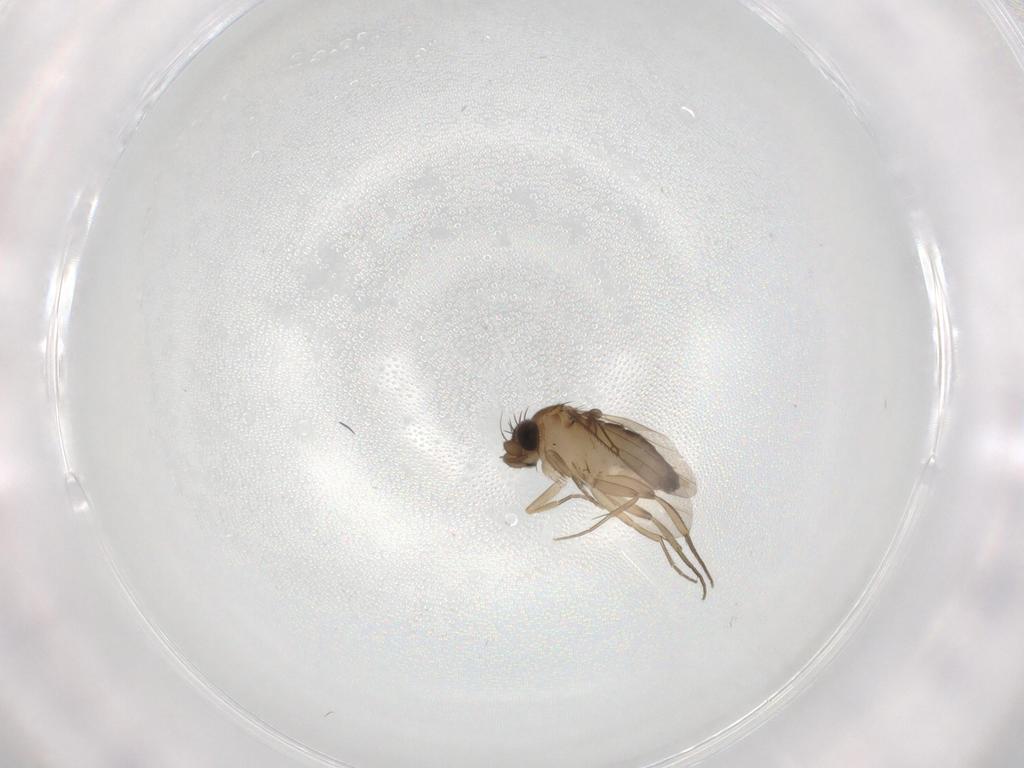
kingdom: Animalia
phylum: Arthropoda
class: Insecta
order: Diptera
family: Phoridae
